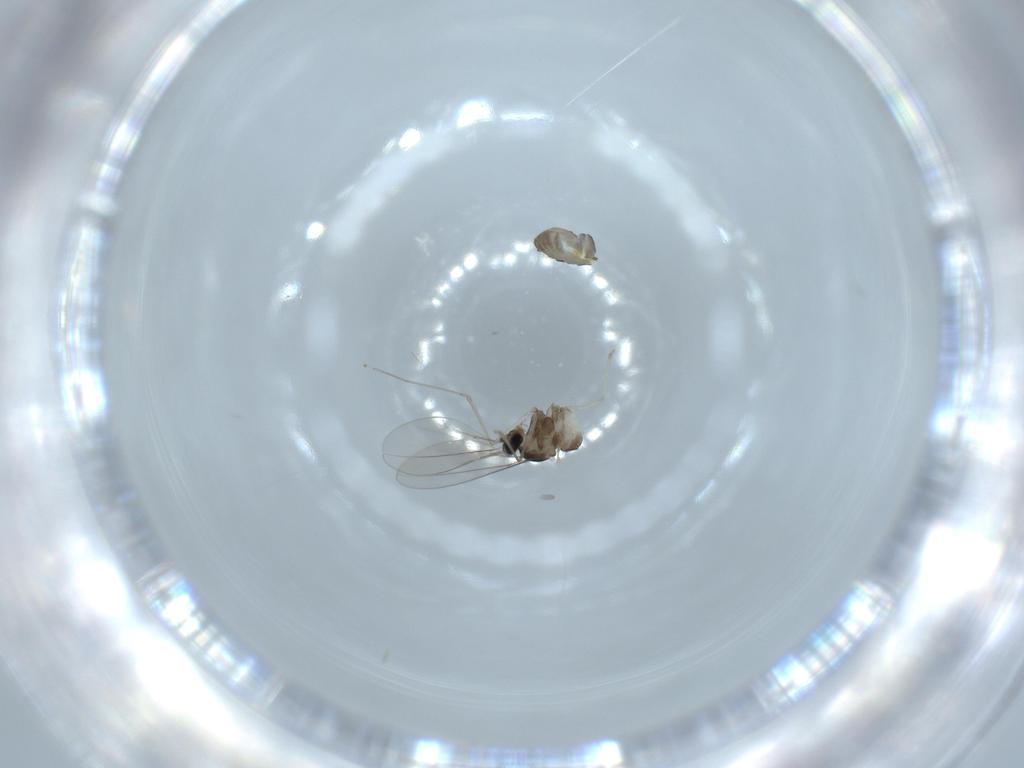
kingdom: Animalia
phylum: Arthropoda
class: Insecta
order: Diptera
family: Cecidomyiidae
